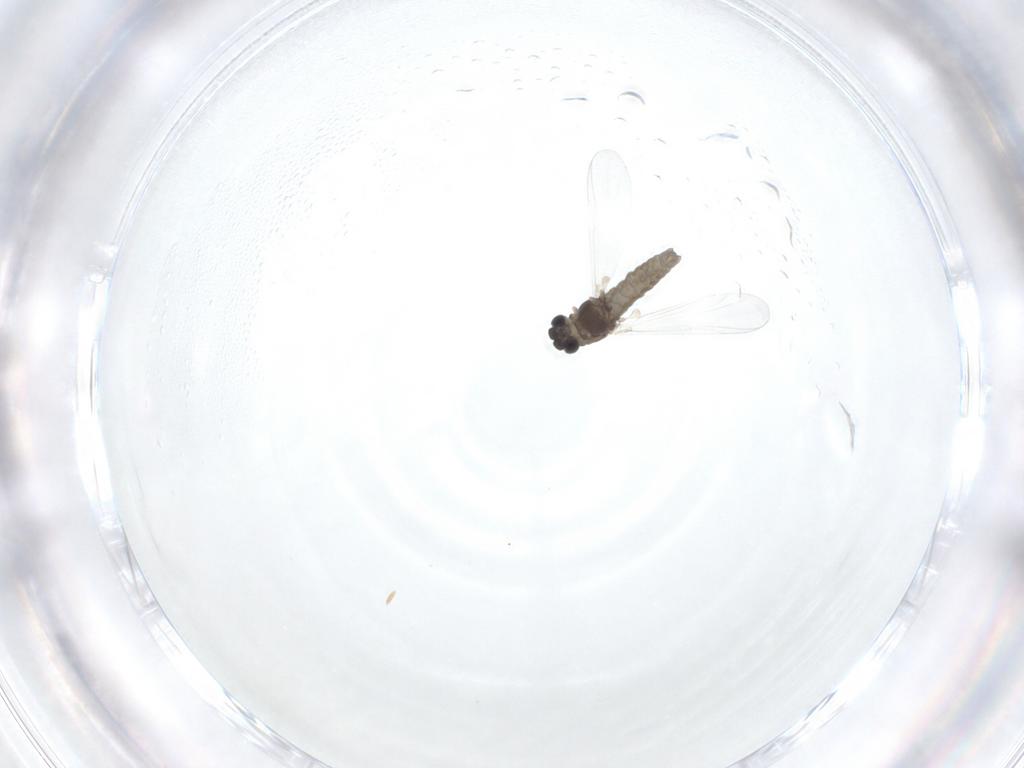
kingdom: Animalia
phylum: Arthropoda
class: Insecta
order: Diptera
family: Chironomidae
